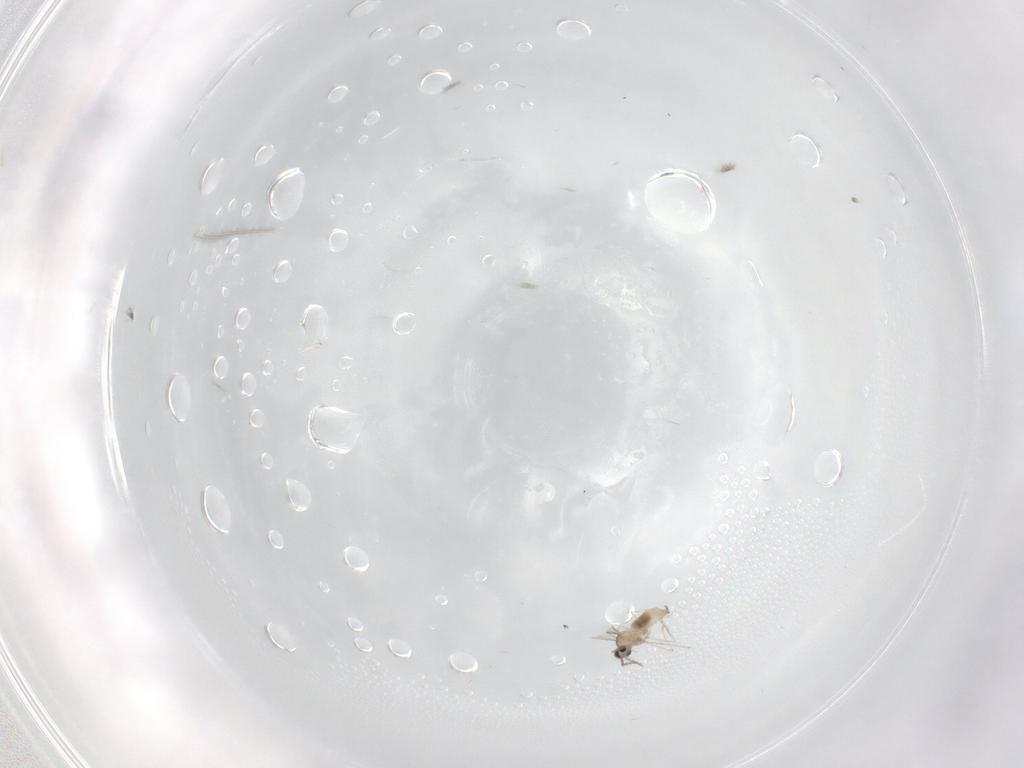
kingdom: Animalia
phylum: Arthropoda
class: Insecta
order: Diptera
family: Cecidomyiidae
